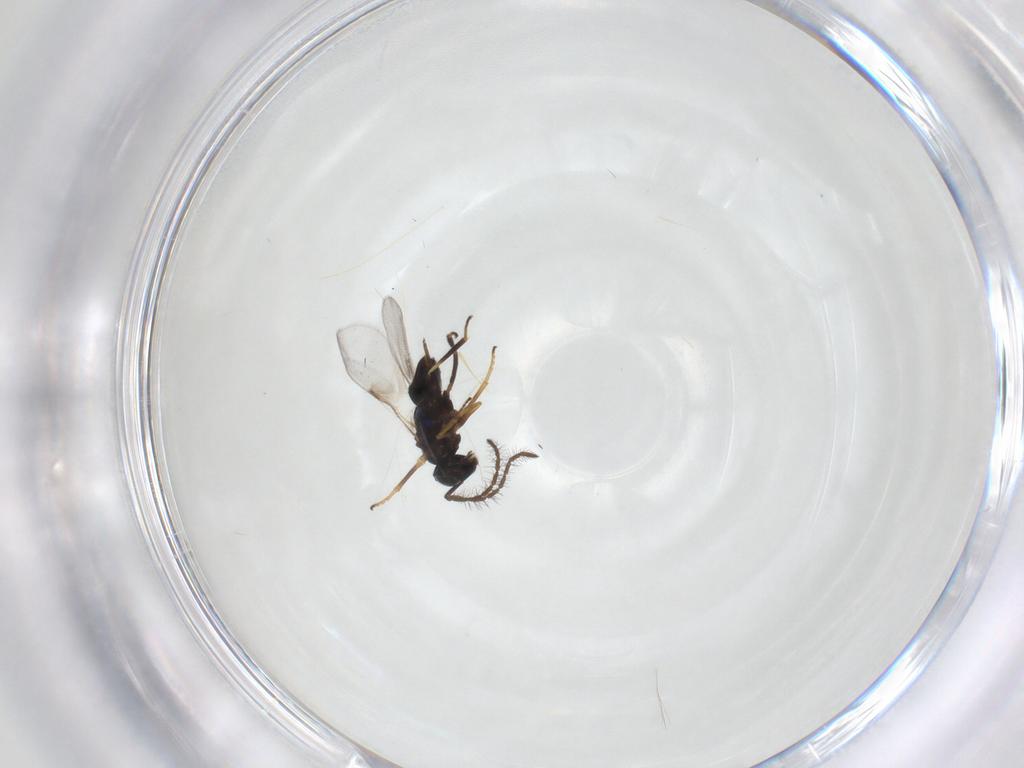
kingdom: Animalia
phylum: Arthropoda
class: Insecta
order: Hymenoptera
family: Encyrtidae
